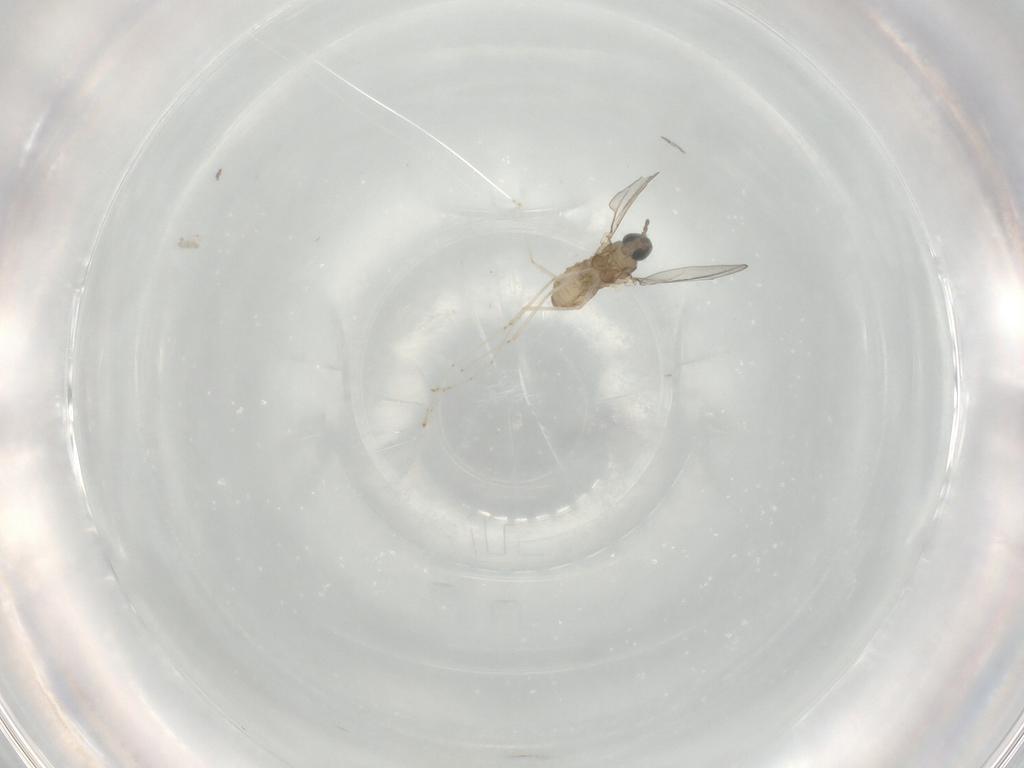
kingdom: Animalia
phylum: Arthropoda
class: Insecta
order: Diptera
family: Cecidomyiidae
